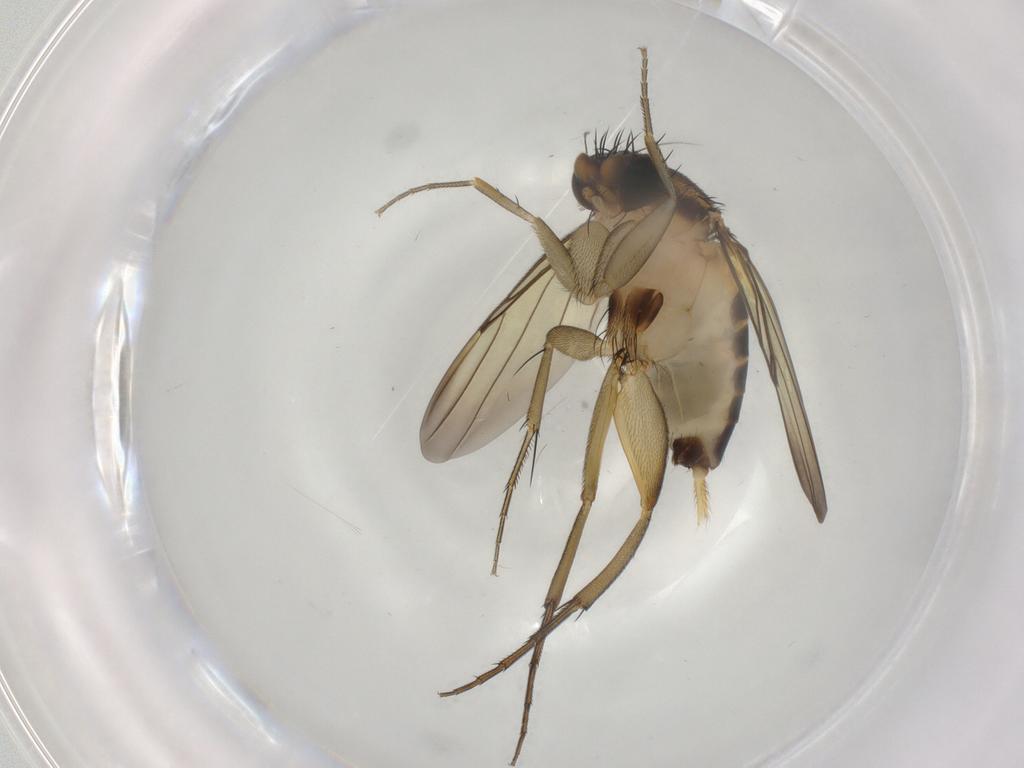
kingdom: Animalia
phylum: Arthropoda
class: Insecta
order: Diptera
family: Phoridae
